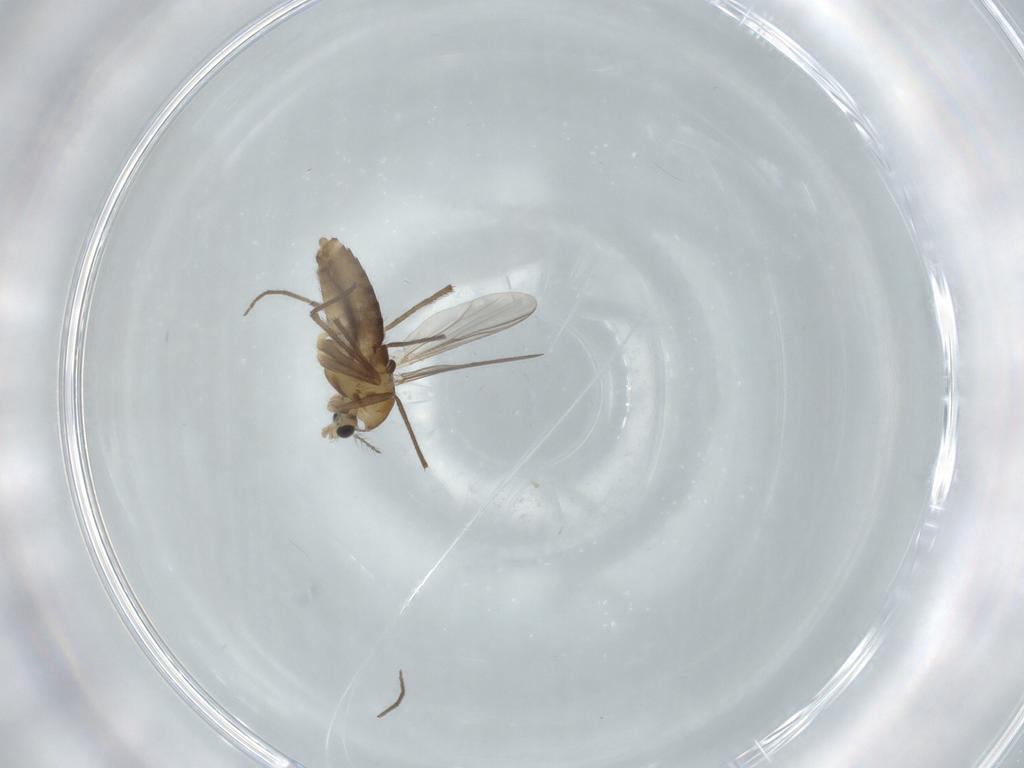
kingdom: Animalia
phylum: Arthropoda
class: Insecta
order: Diptera
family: Chironomidae
